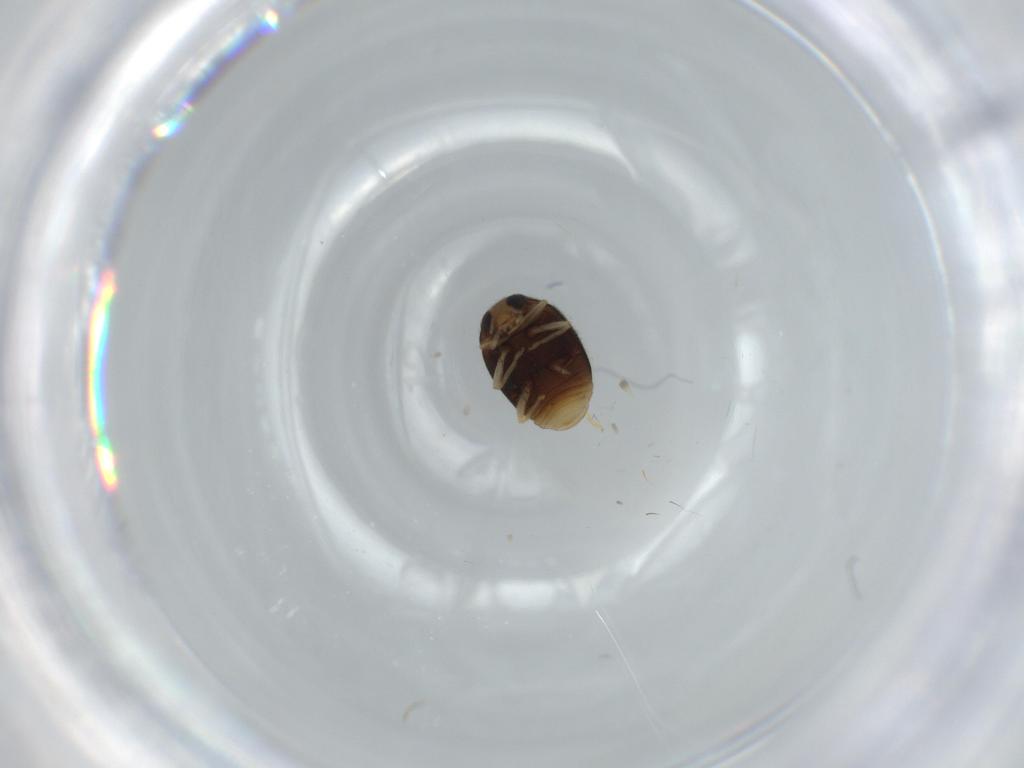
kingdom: Animalia
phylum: Arthropoda
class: Insecta
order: Coleoptera
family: Coccinellidae
